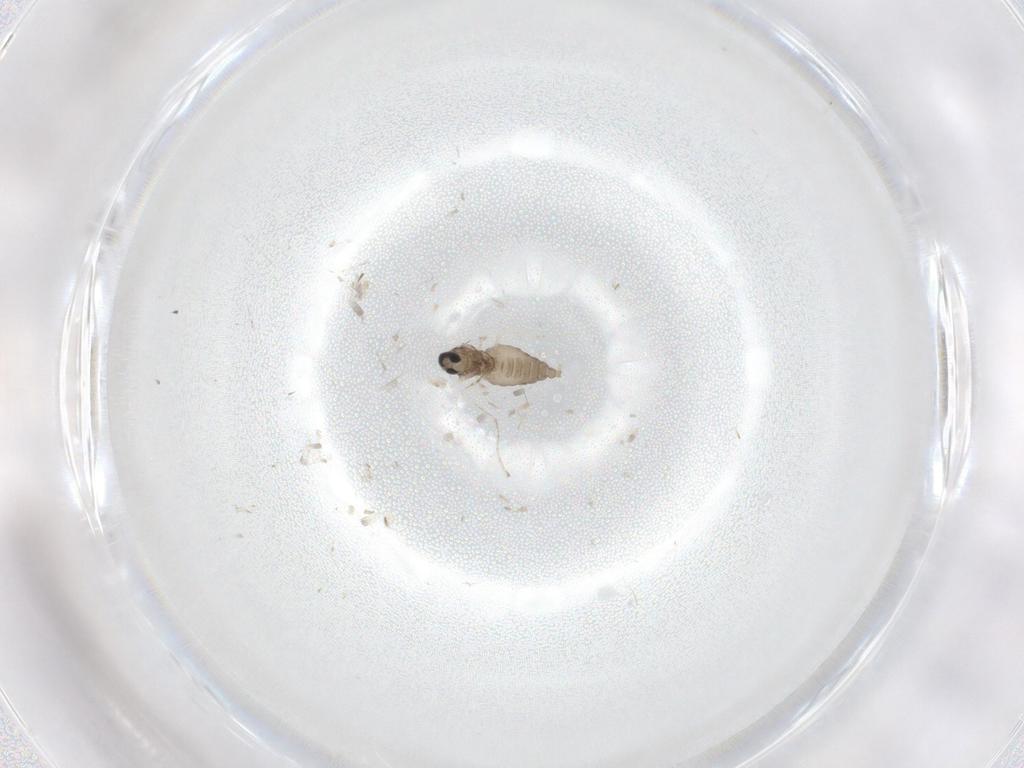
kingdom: Animalia
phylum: Arthropoda
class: Insecta
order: Diptera
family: Cecidomyiidae
